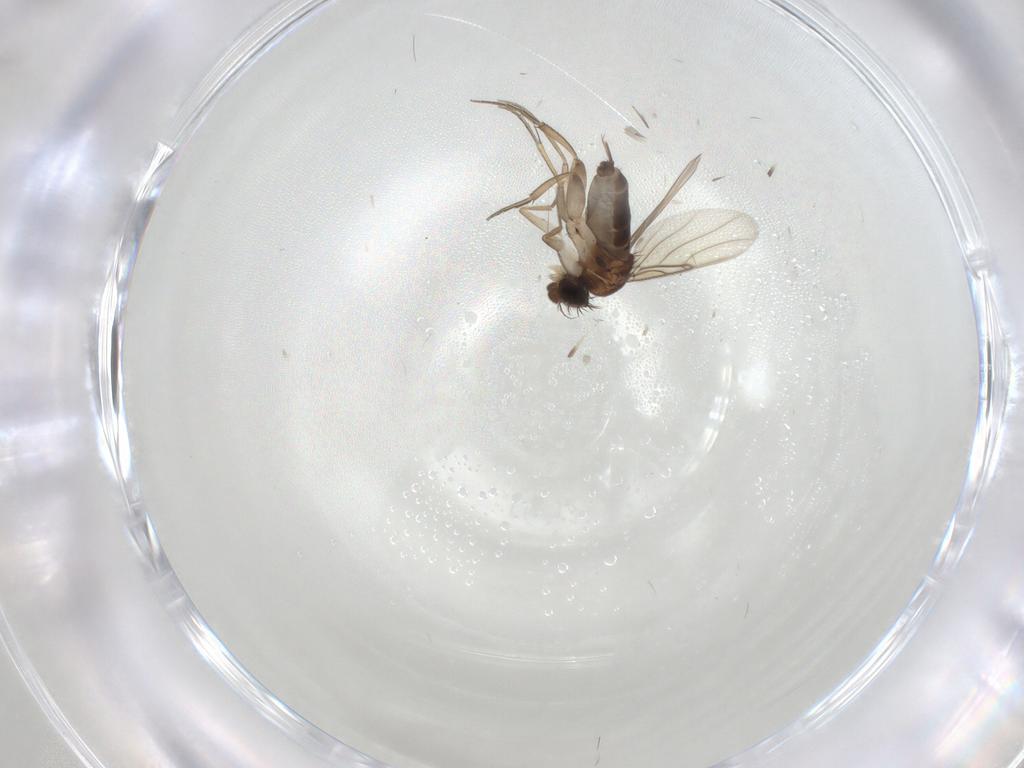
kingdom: Animalia
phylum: Arthropoda
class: Insecta
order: Diptera
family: Phoridae
